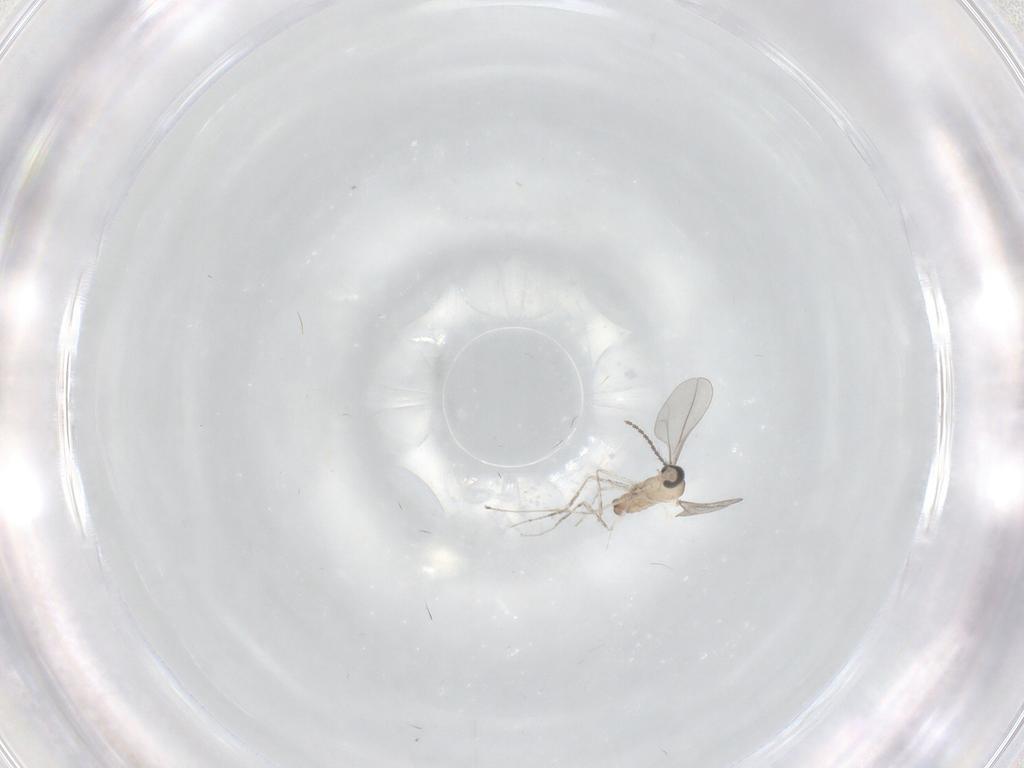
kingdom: Animalia
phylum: Arthropoda
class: Insecta
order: Diptera
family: Cecidomyiidae
